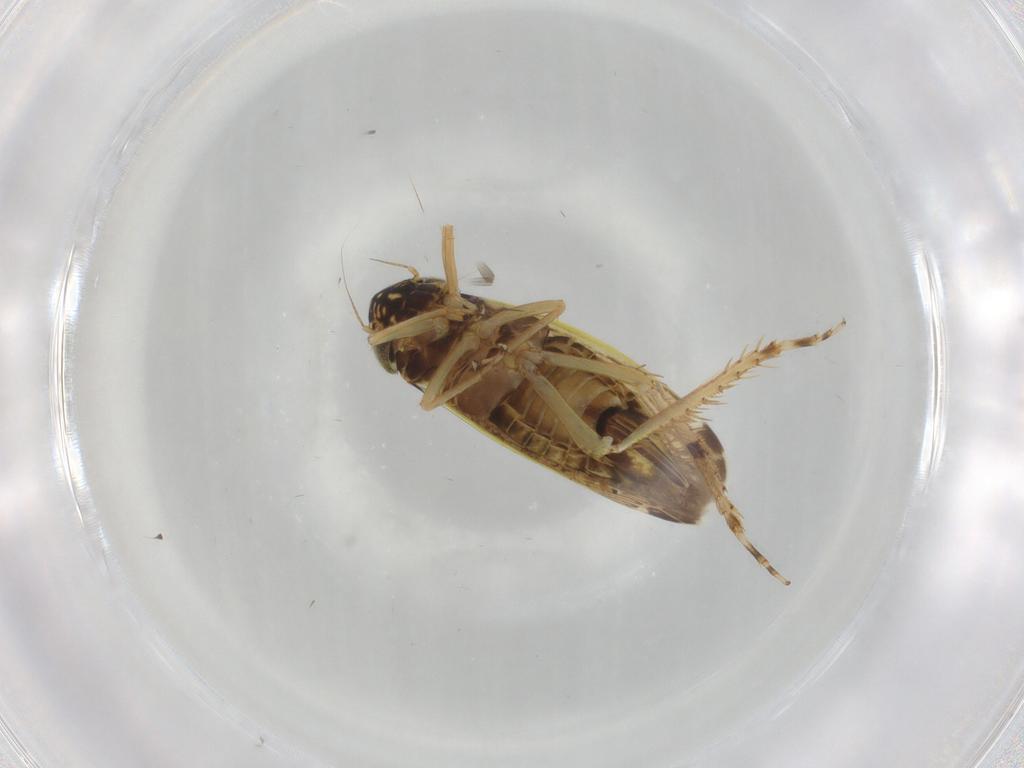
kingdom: Animalia
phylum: Arthropoda
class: Insecta
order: Hemiptera
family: Cicadellidae
